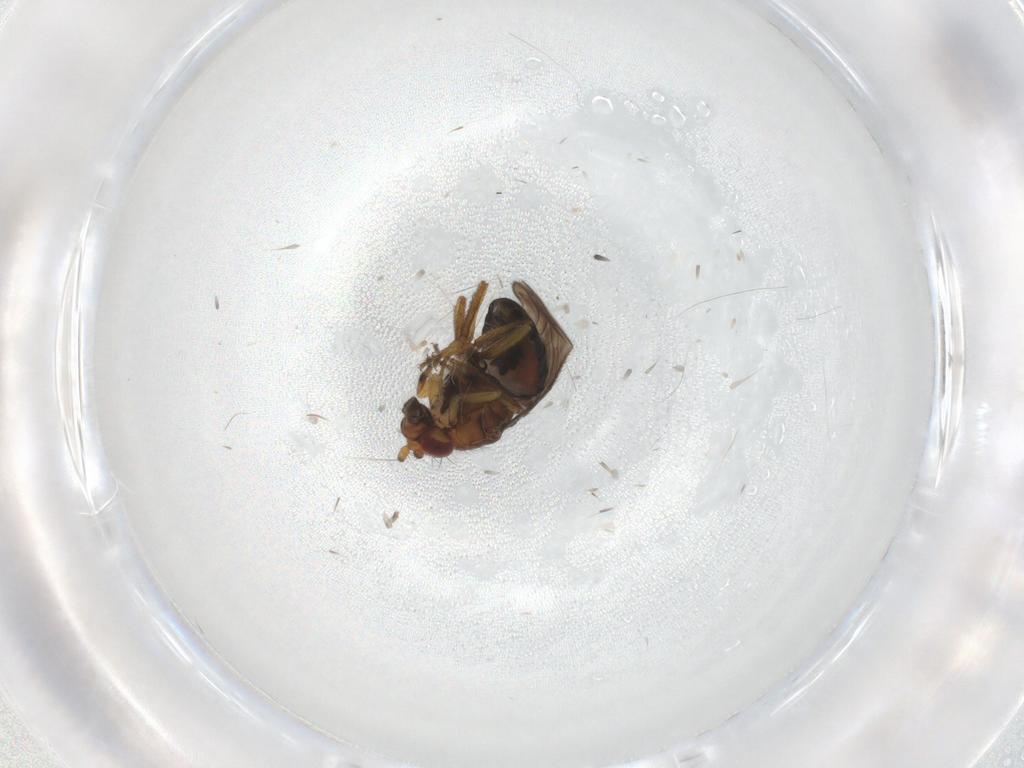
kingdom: Animalia
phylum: Arthropoda
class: Insecta
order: Diptera
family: Sphaeroceridae
